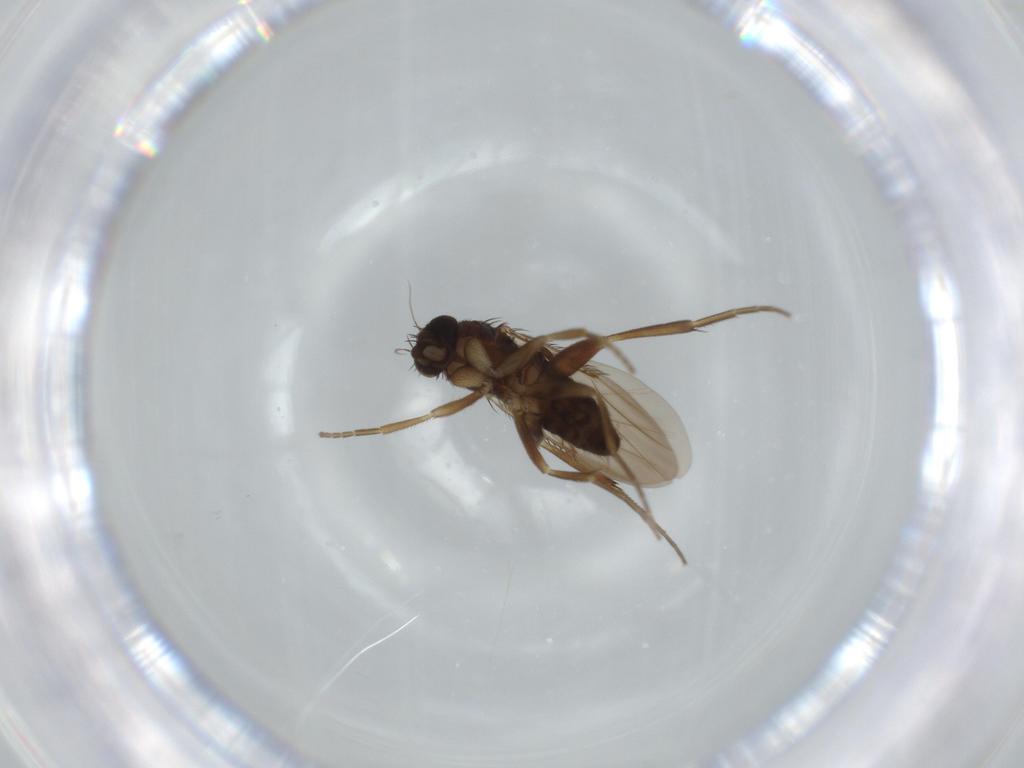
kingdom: Animalia
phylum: Arthropoda
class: Insecta
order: Diptera
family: Phoridae
